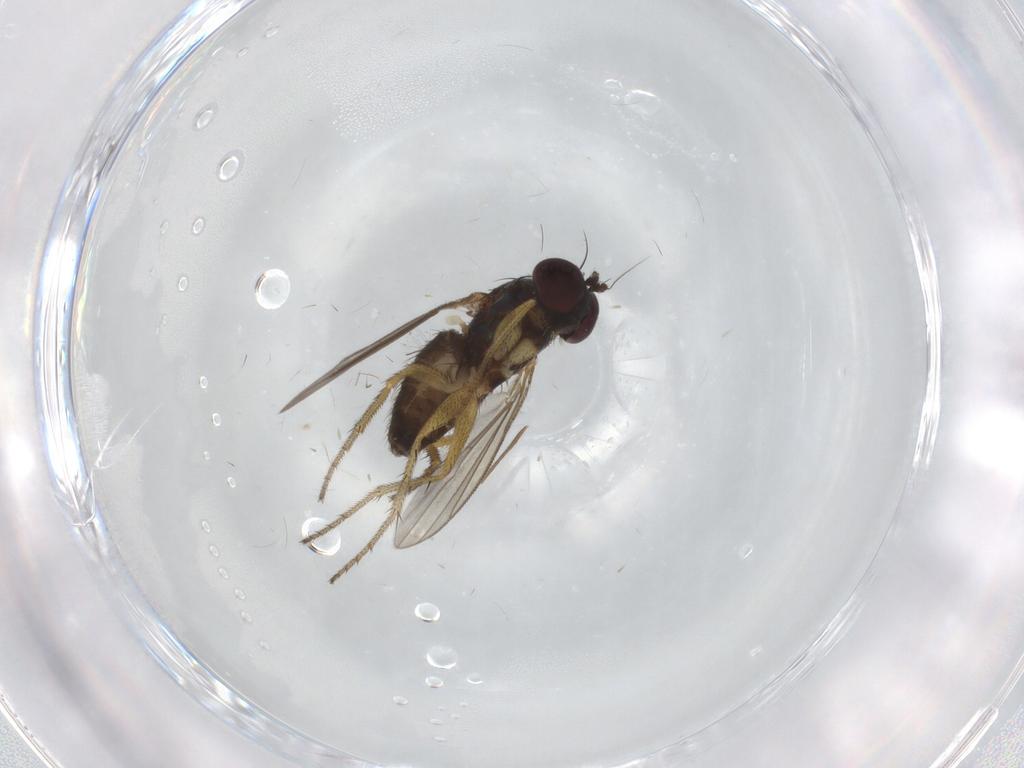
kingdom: Animalia
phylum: Arthropoda
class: Insecta
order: Diptera
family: Dolichopodidae
